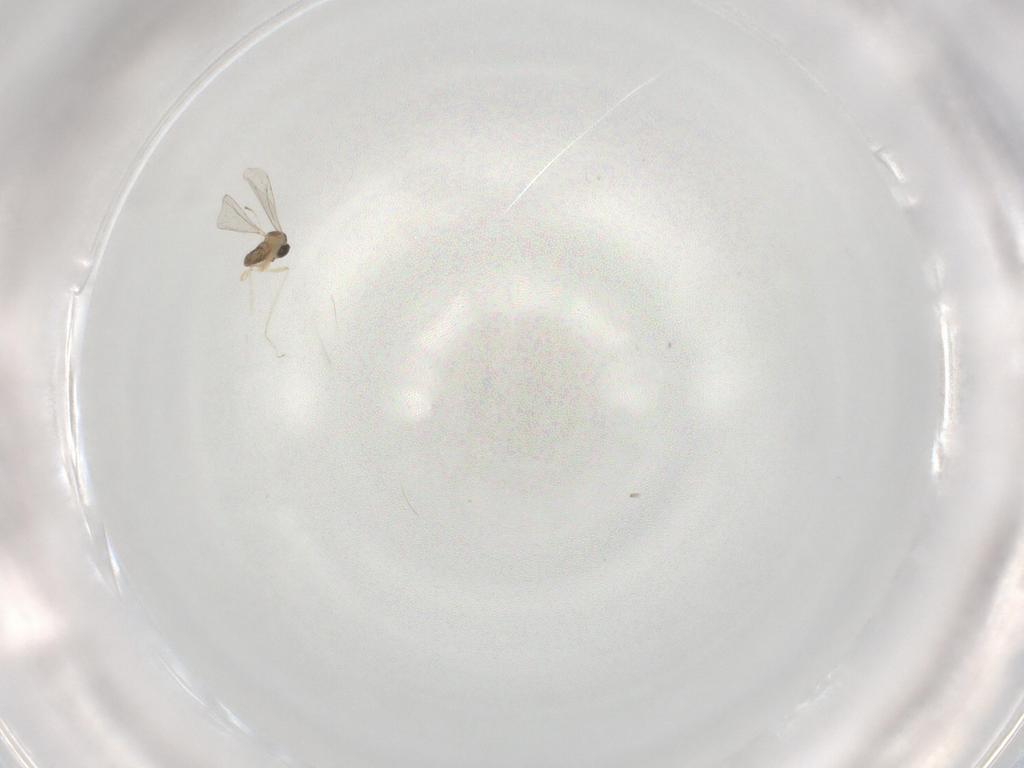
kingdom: Animalia
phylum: Arthropoda
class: Insecta
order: Diptera
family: Cecidomyiidae
